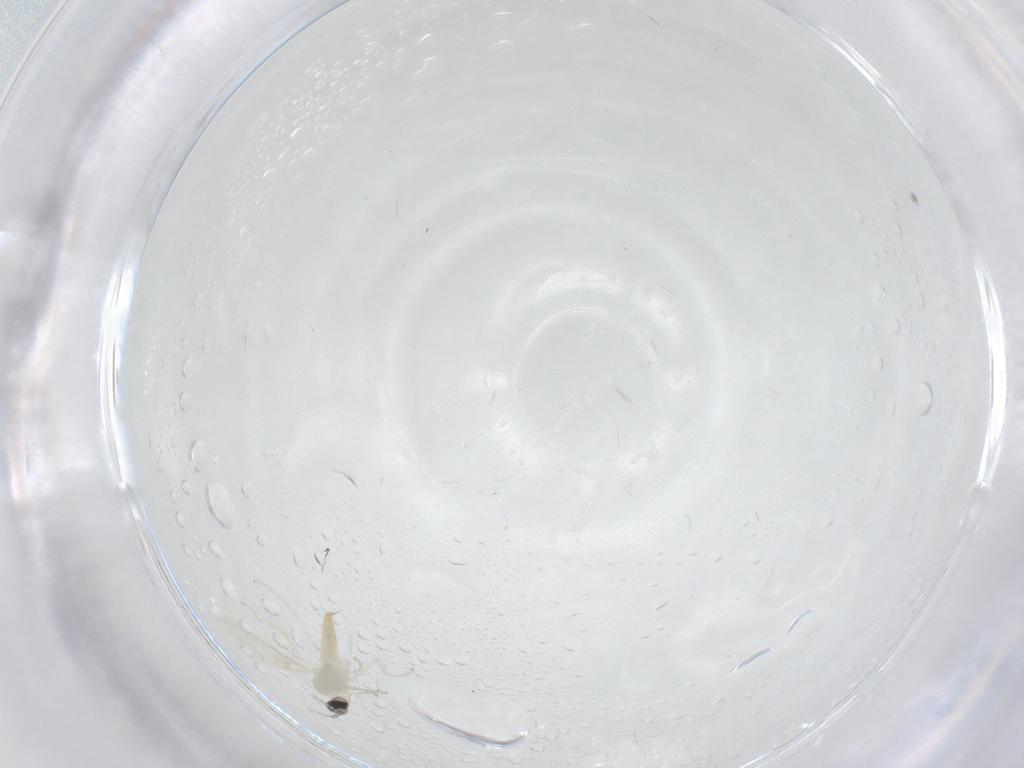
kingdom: Animalia
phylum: Arthropoda
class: Insecta
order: Diptera
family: Cecidomyiidae
